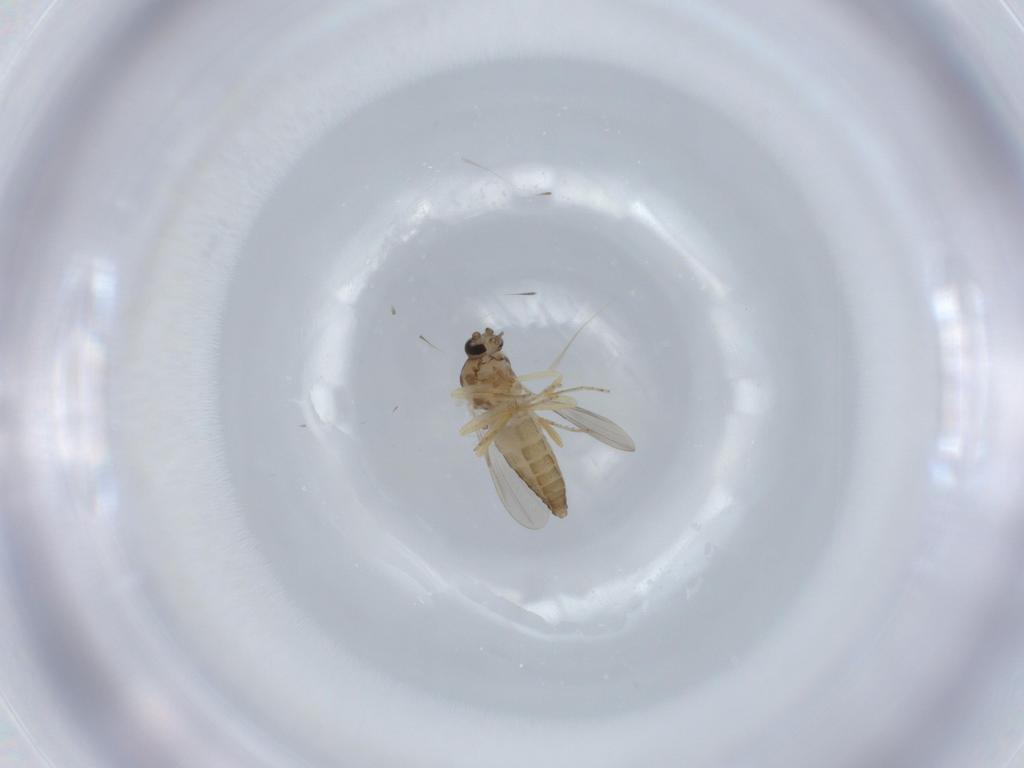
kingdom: Animalia
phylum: Arthropoda
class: Insecta
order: Diptera
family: Ceratopogonidae
